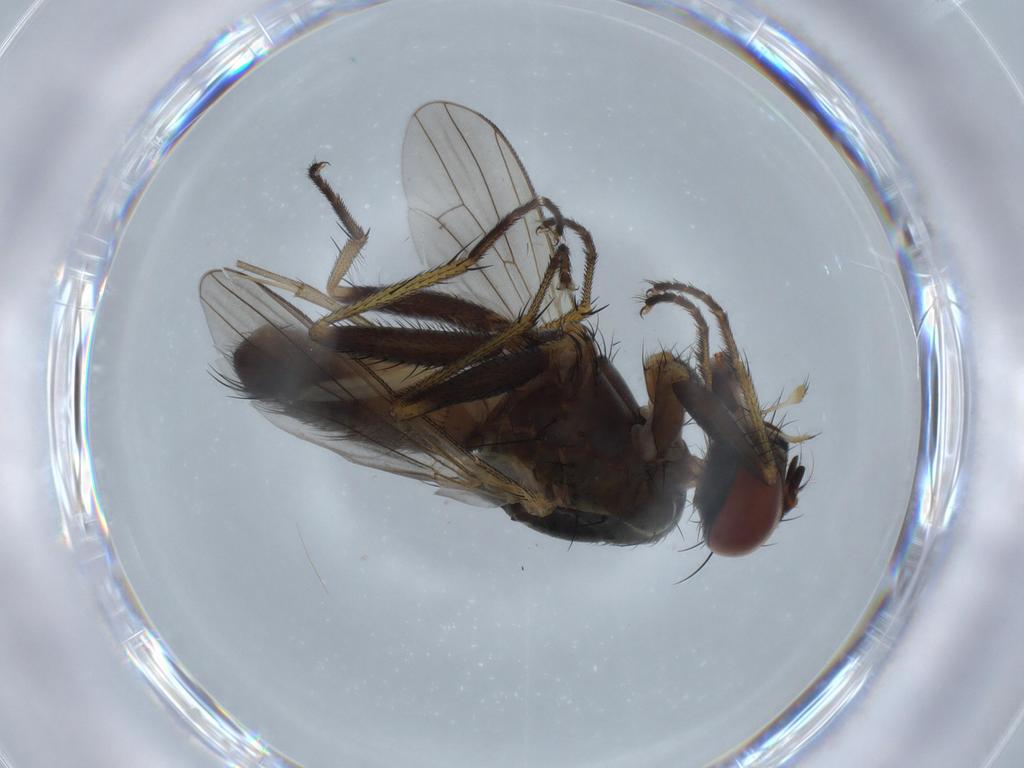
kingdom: Animalia
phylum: Arthropoda
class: Insecta
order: Diptera
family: Muscidae
